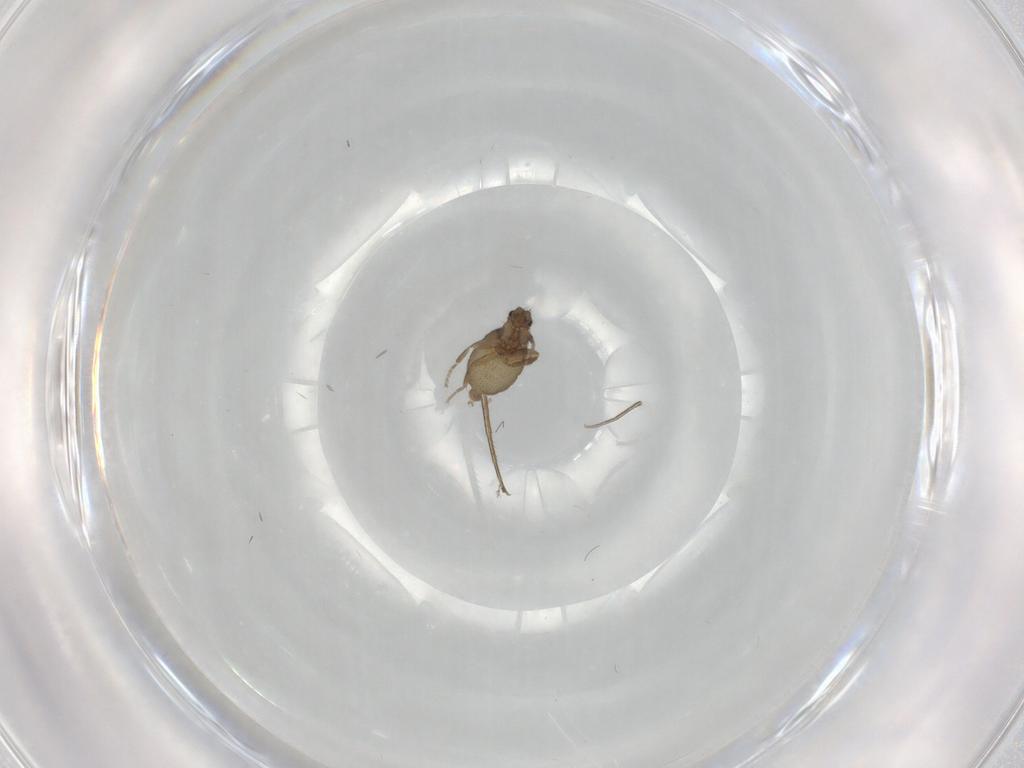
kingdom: Animalia
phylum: Arthropoda
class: Insecta
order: Diptera
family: Phoridae
